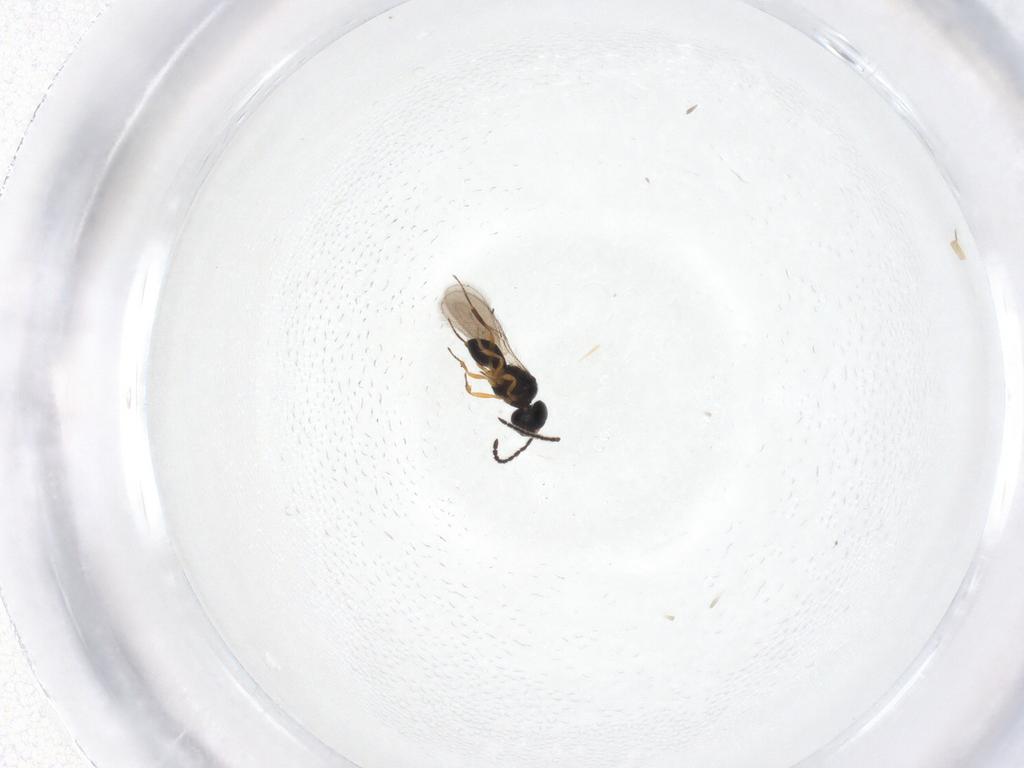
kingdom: Animalia
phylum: Arthropoda
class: Insecta
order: Hymenoptera
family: Scelionidae
